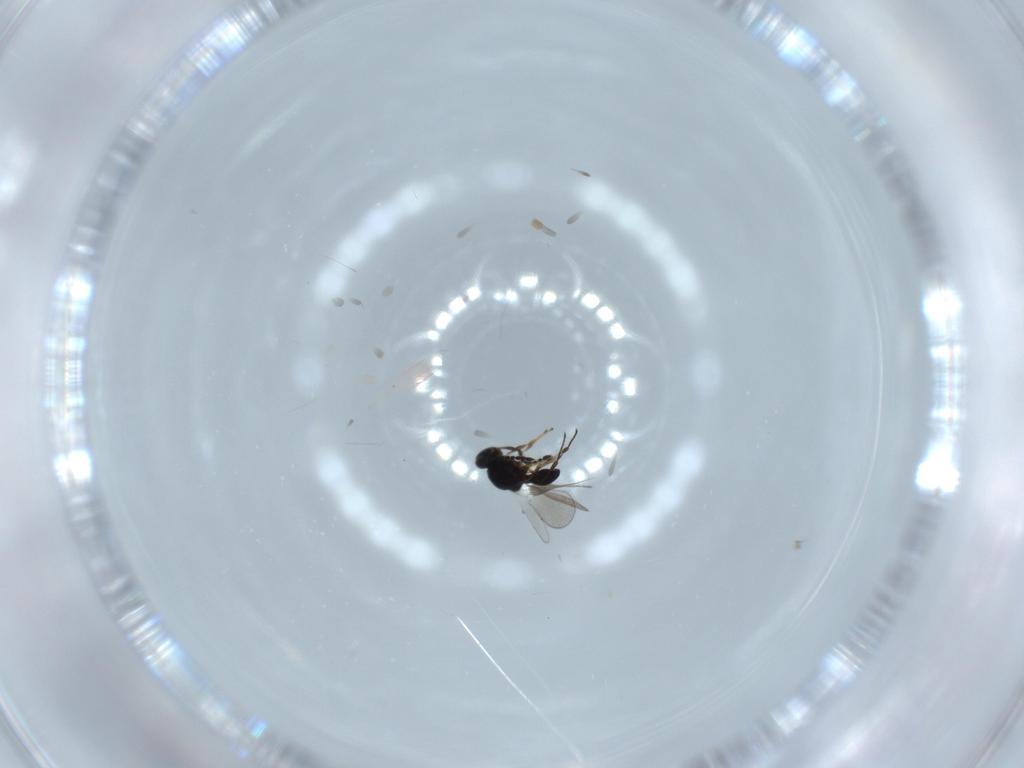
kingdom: Animalia
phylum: Arthropoda
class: Insecta
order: Hymenoptera
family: Platygastridae
